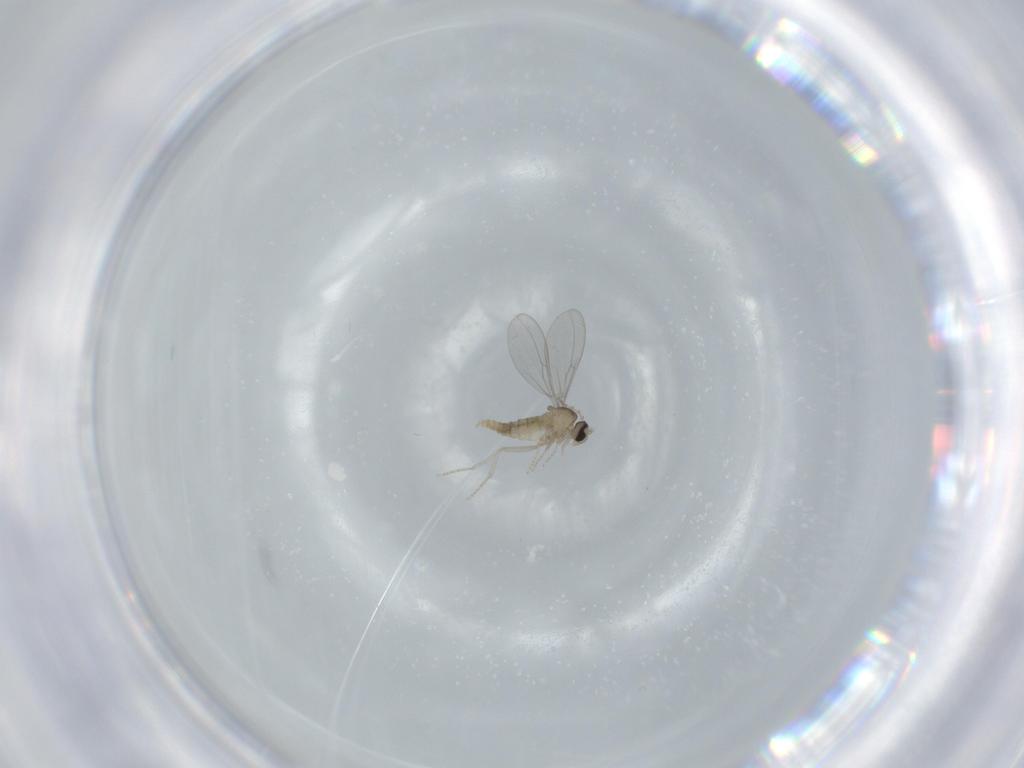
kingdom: Animalia
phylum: Arthropoda
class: Insecta
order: Diptera
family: Cecidomyiidae
